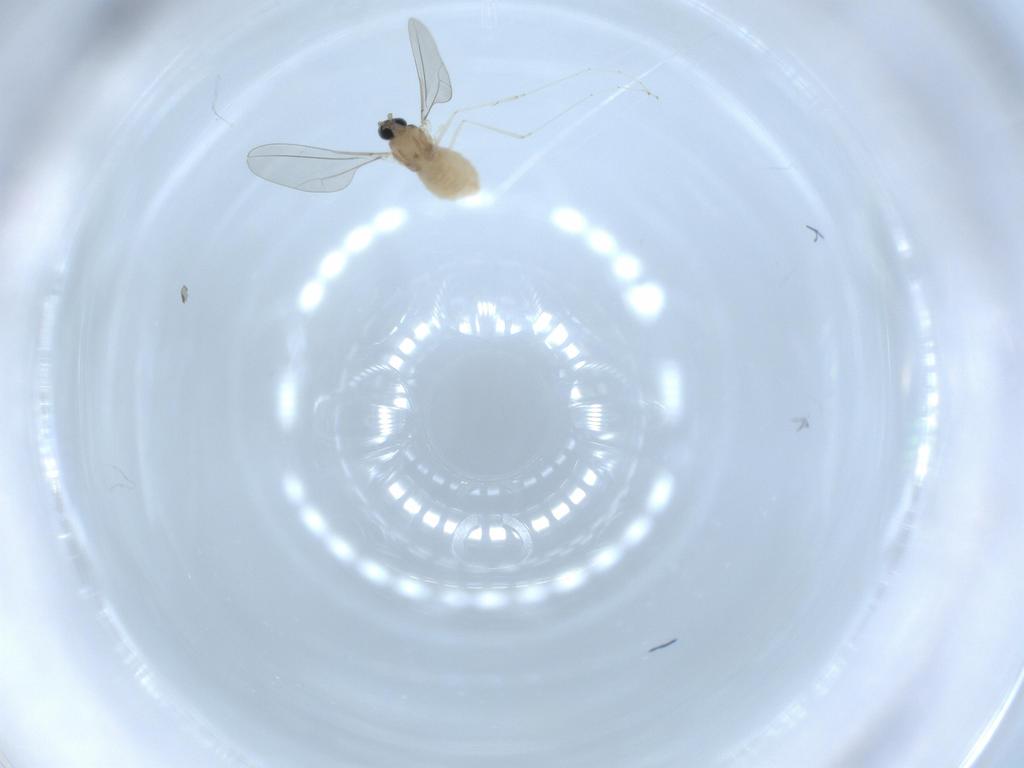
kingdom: Animalia
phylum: Arthropoda
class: Insecta
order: Diptera
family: Cecidomyiidae
